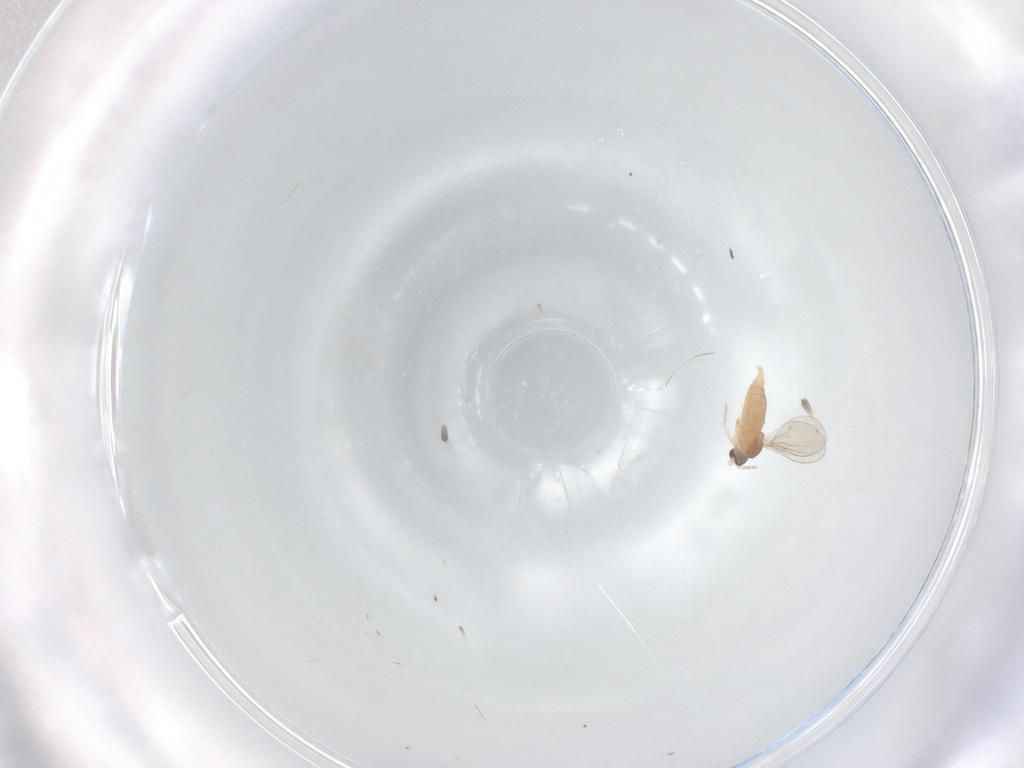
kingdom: Animalia
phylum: Arthropoda
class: Insecta
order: Diptera
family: Cecidomyiidae
